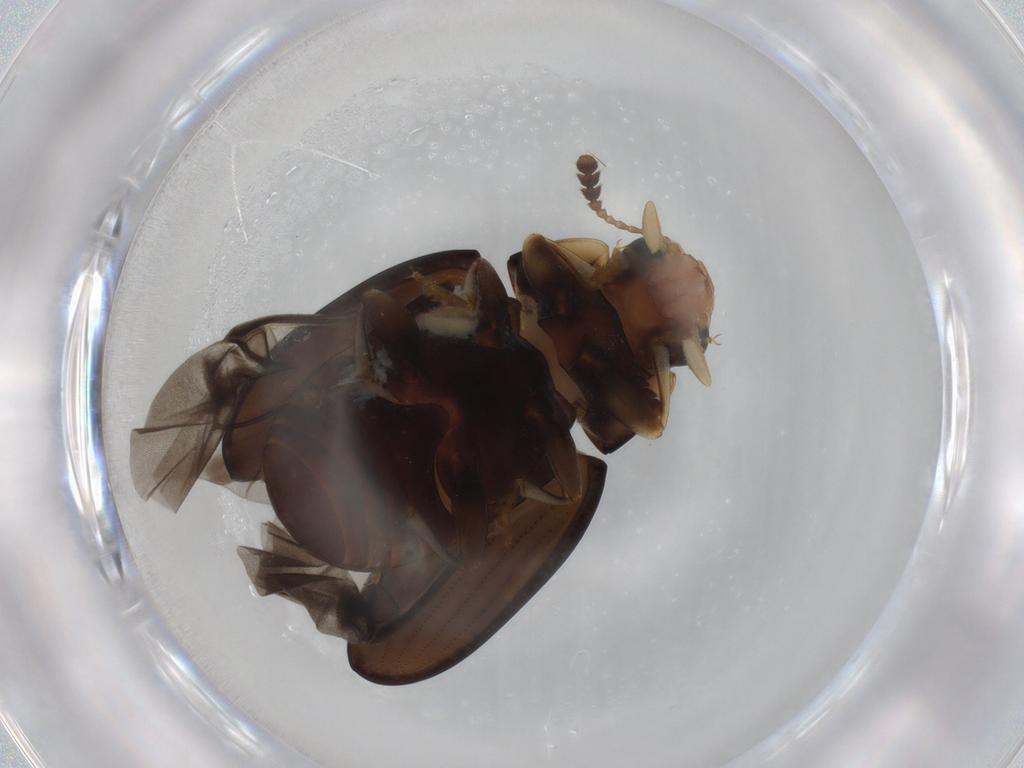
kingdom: Animalia
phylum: Arthropoda
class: Insecta
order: Coleoptera
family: Erotylidae
